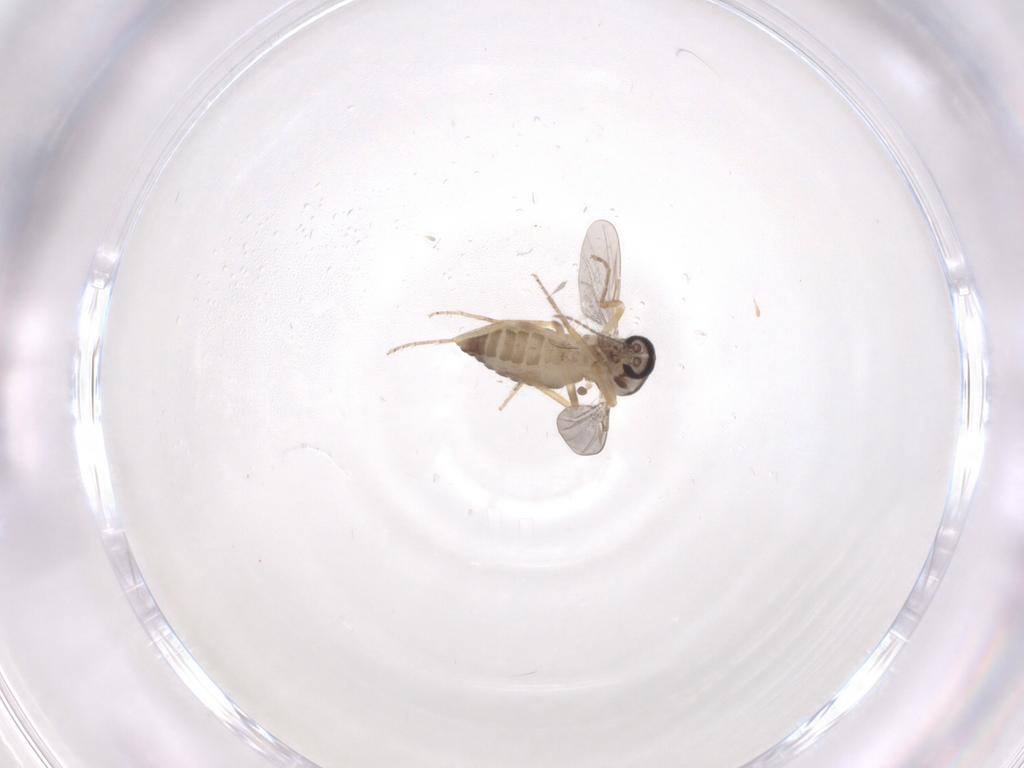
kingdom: Animalia
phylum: Arthropoda
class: Insecta
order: Diptera
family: Ceratopogonidae
